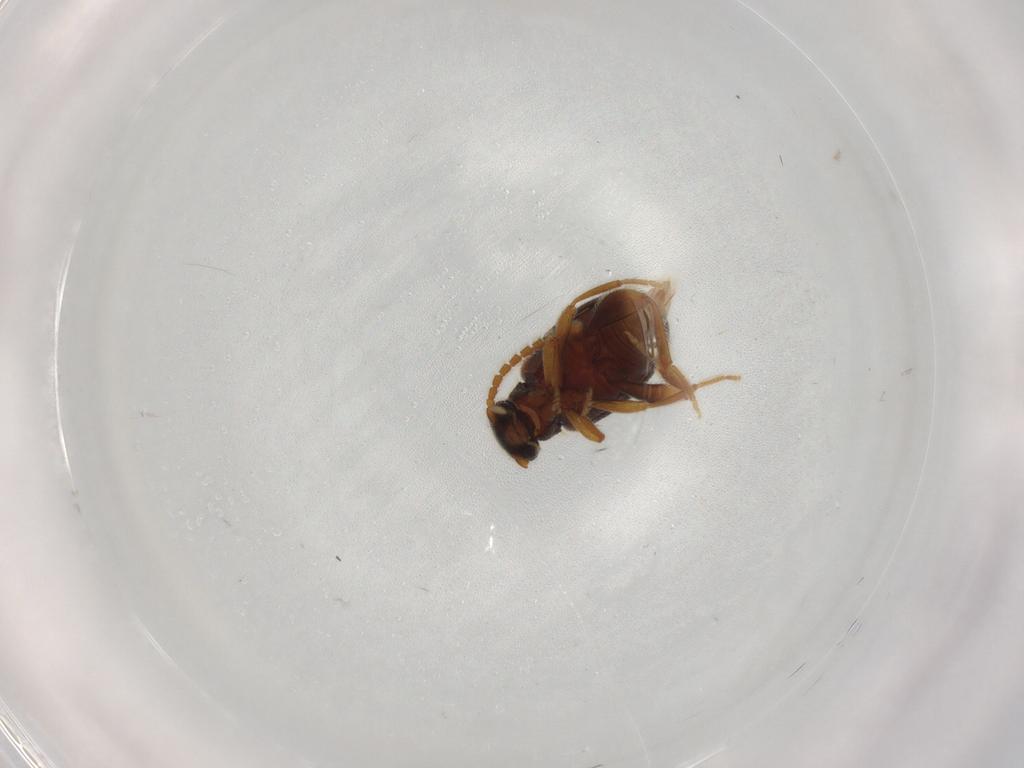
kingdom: Animalia
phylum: Arthropoda
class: Insecta
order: Coleoptera
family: Aderidae
